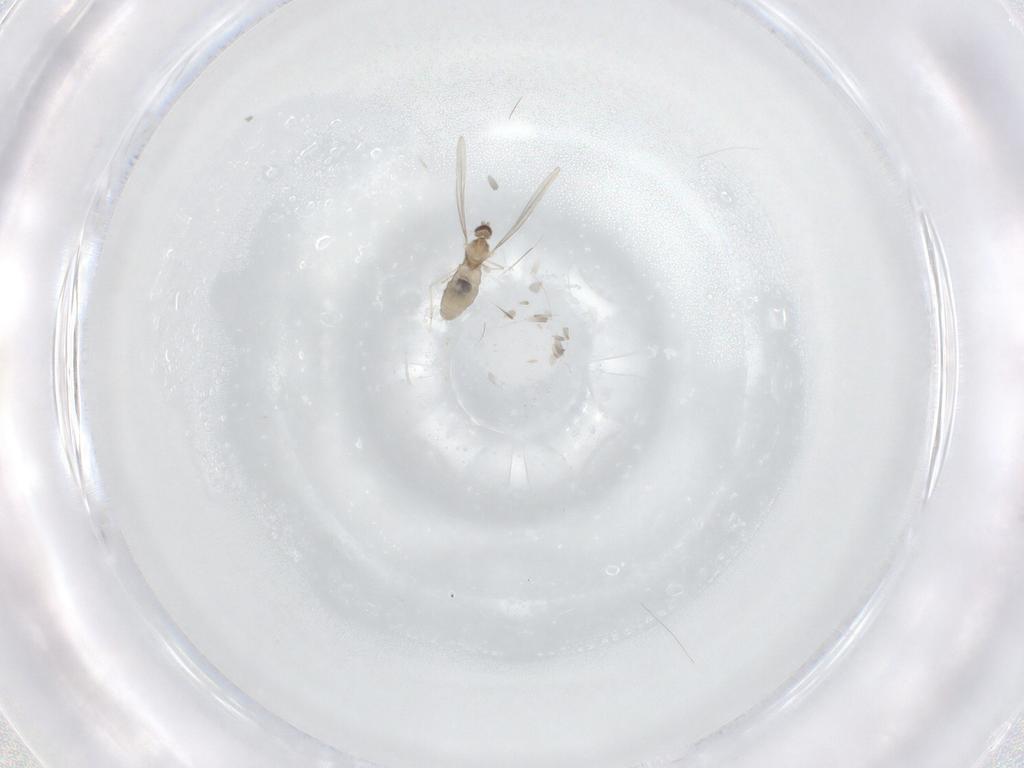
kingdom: Animalia
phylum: Arthropoda
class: Insecta
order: Diptera
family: Cecidomyiidae
